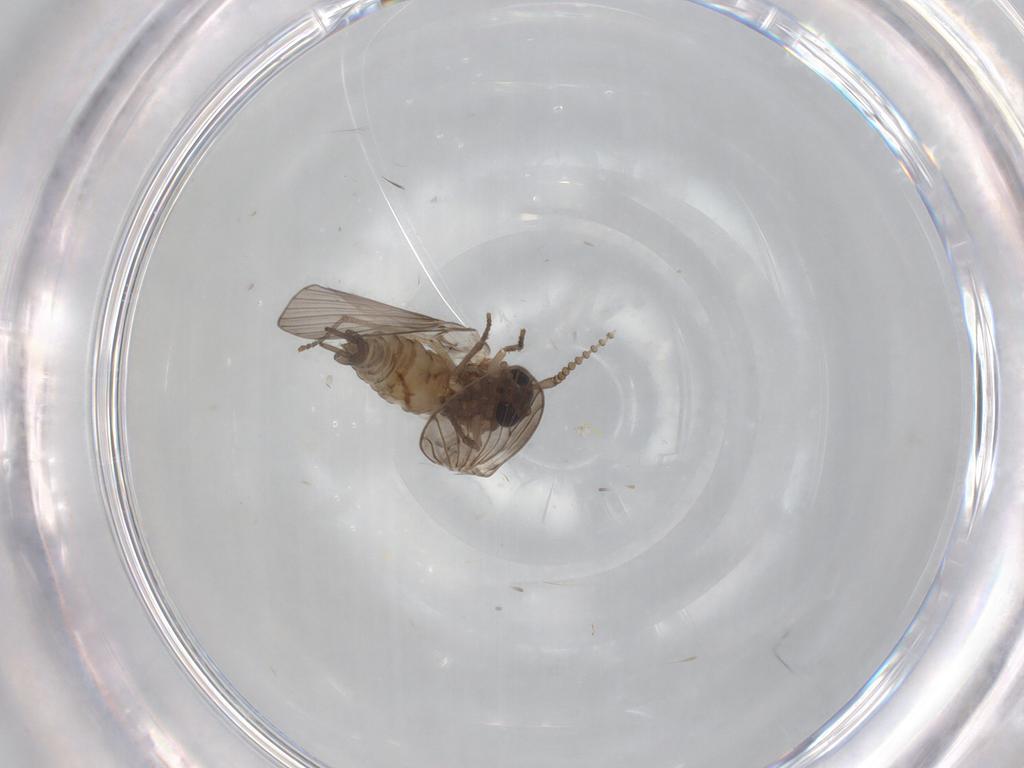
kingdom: Animalia
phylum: Arthropoda
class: Insecta
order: Diptera
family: Psychodidae
